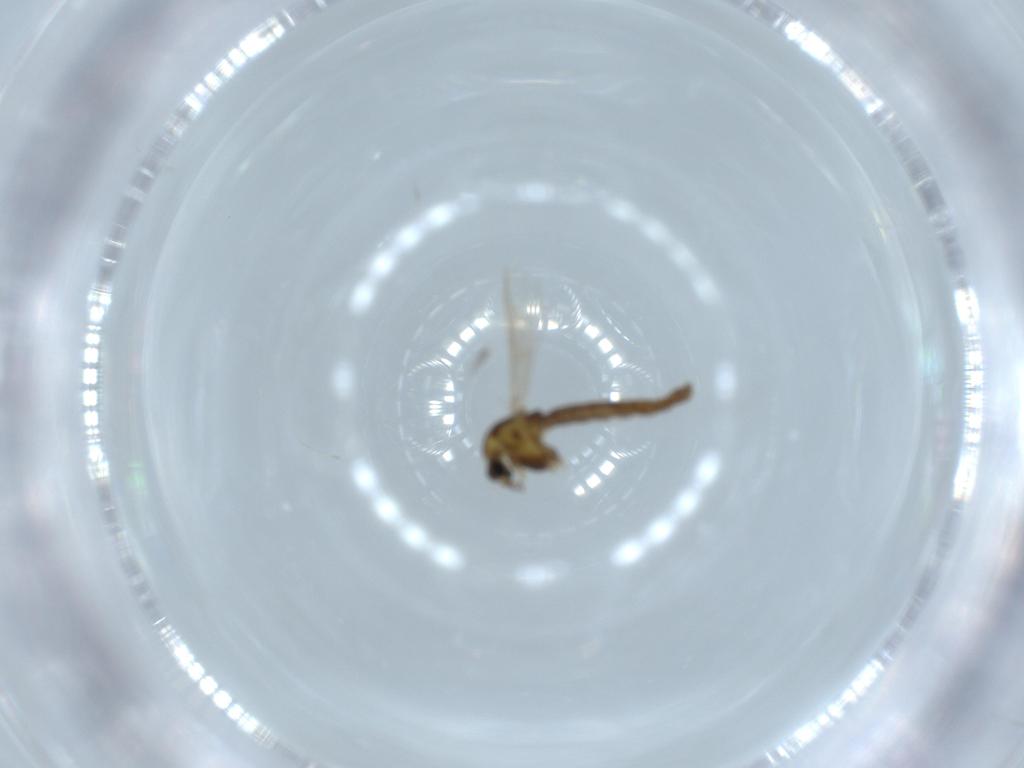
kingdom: Animalia
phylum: Arthropoda
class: Insecta
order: Diptera
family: Chironomidae
